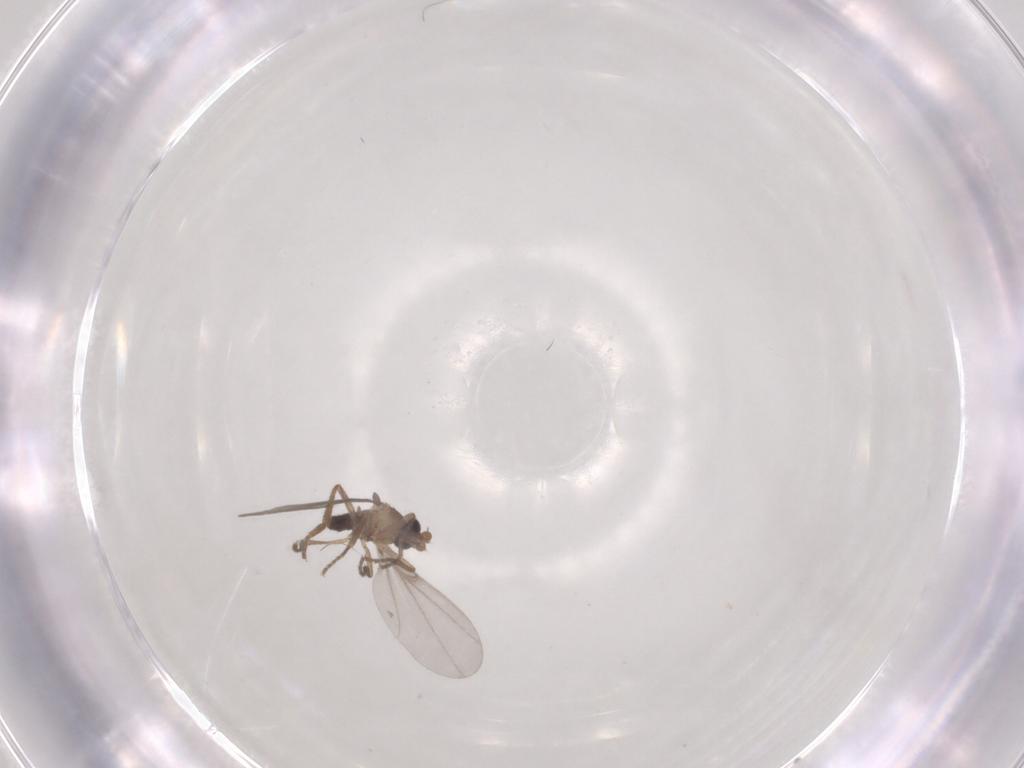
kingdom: Animalia
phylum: Arthropoda
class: Insecta
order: Diptera
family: Phoridae
